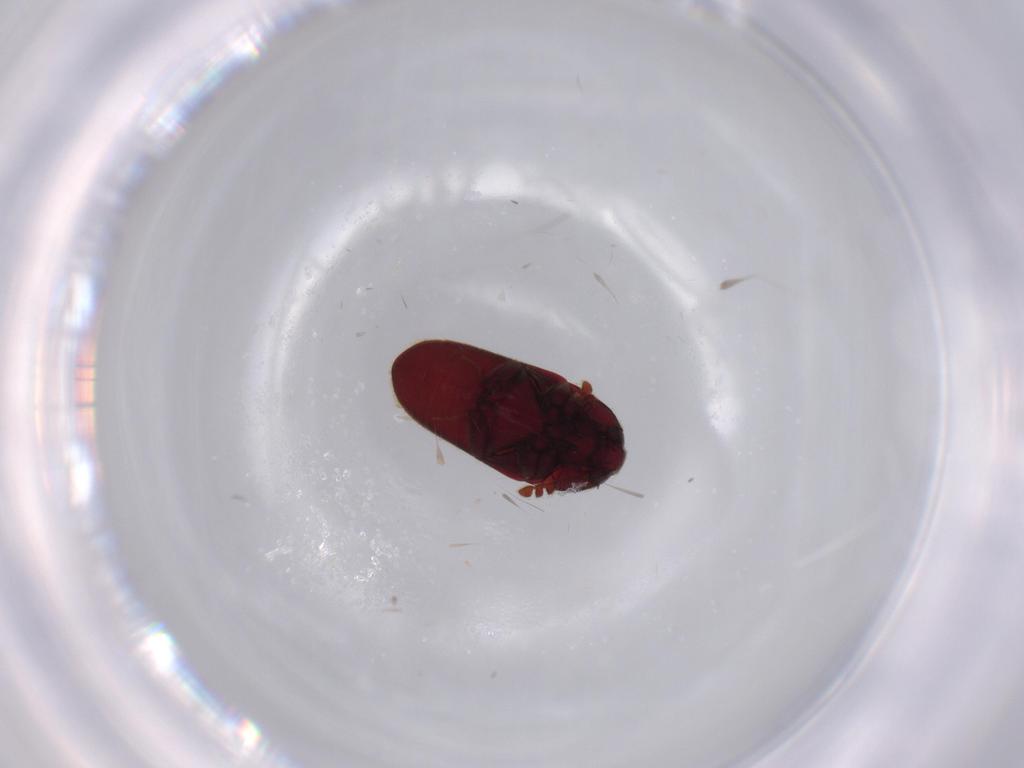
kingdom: Animalia
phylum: Arthropoda
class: Insecta
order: Coleoptera
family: Throscidae
